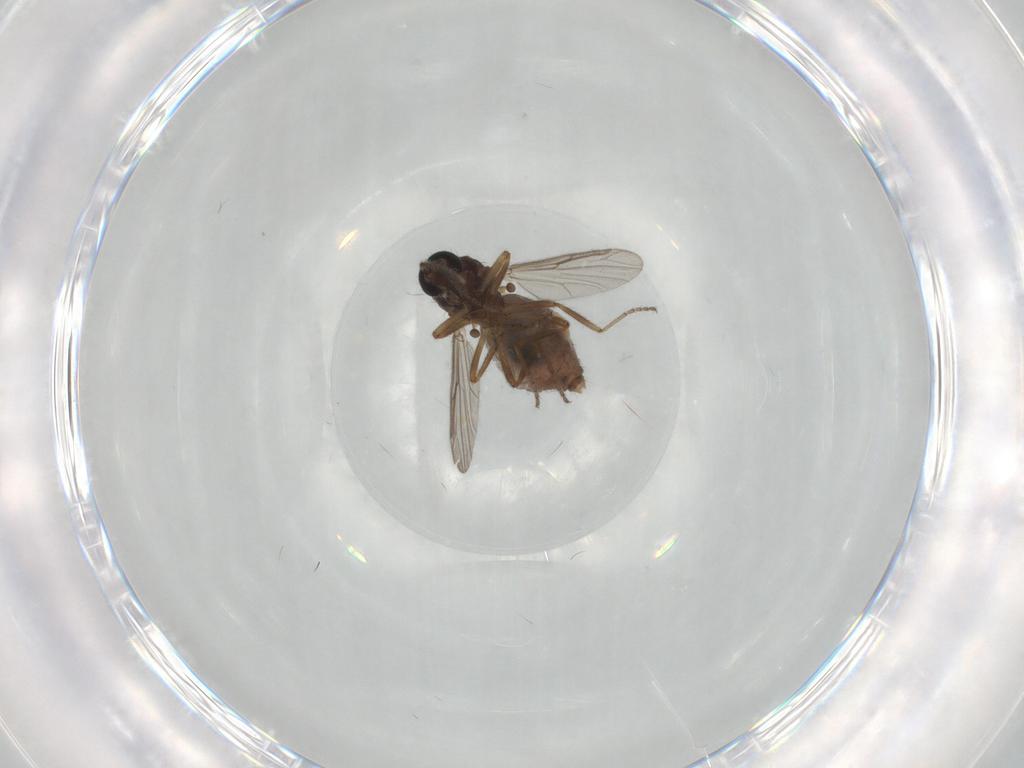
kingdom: Animalia
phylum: Arthropoda
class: Insecta
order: Diptera
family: Ceratopogonidae
